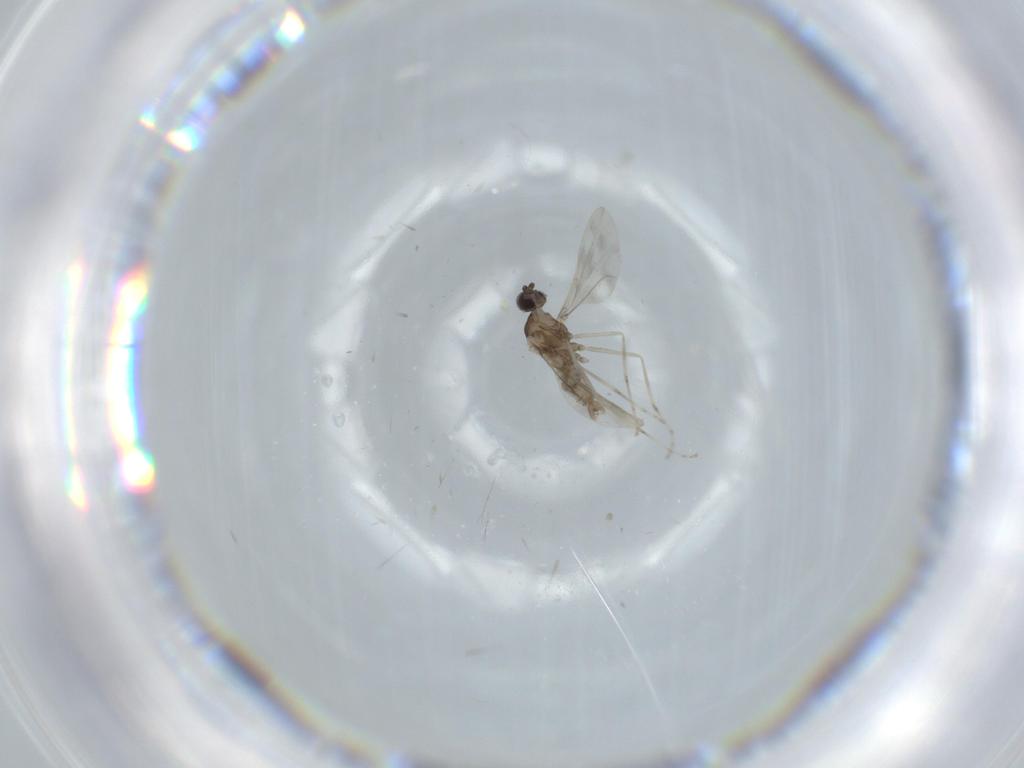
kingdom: Animalia
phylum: Arthropoda
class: Insecta
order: Diptera
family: Cecidomyiidae
